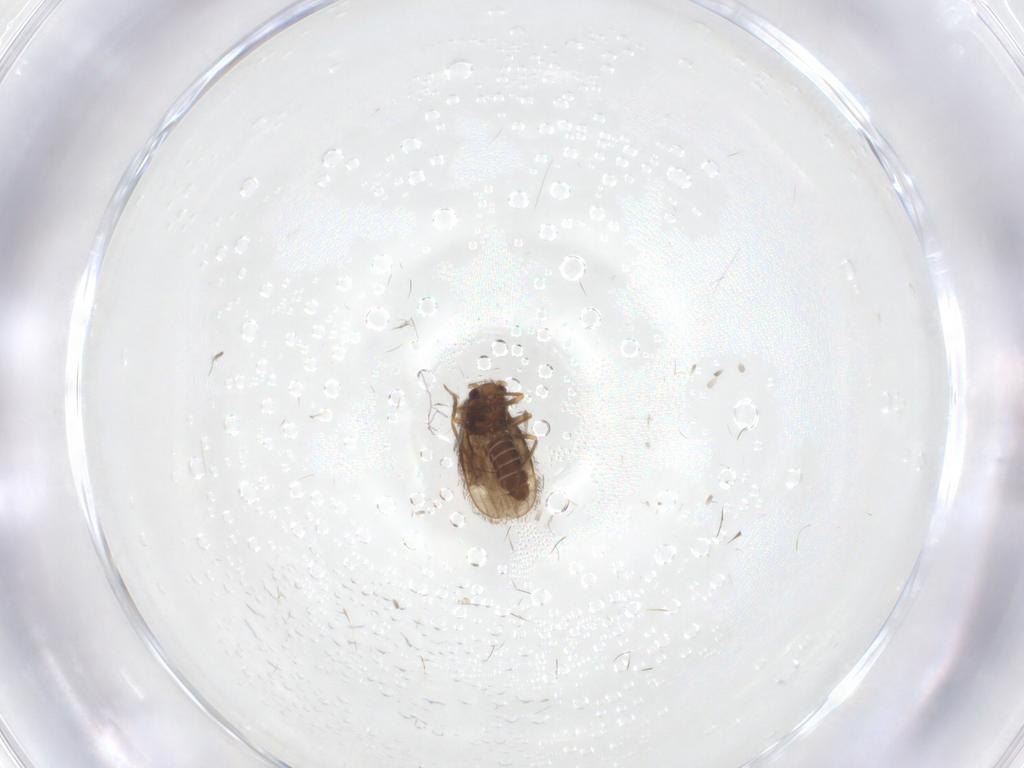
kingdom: Animalia
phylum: Arthropoda
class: Insecta
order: Hemiptera
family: Schizopteridae
